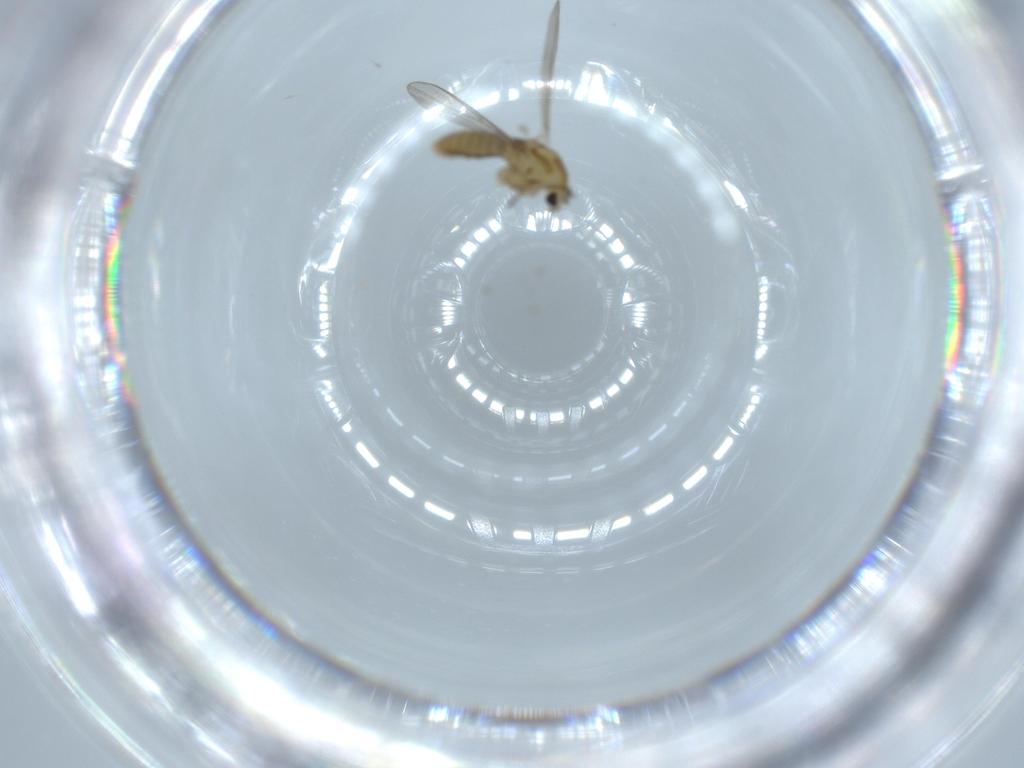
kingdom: Animalia
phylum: Arthropoda
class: Insecta
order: Diptera
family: Chironomidae
